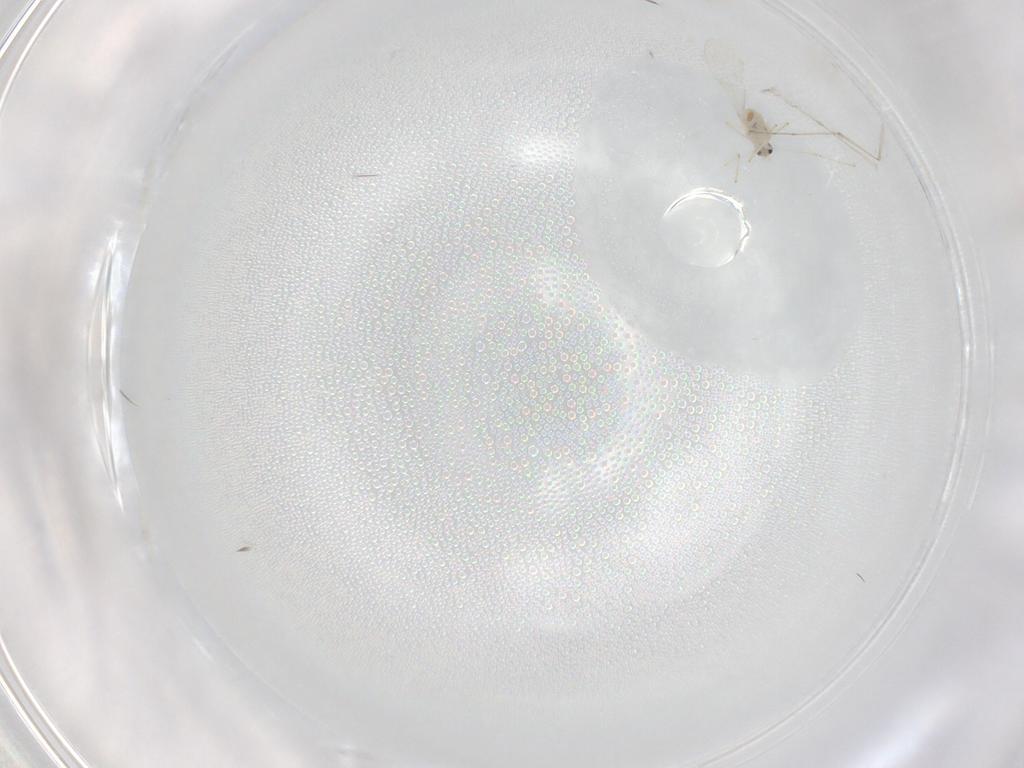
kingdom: Animalia
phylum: Arthropoda
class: Insecta
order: Diptera
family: Cecidomyiidae
